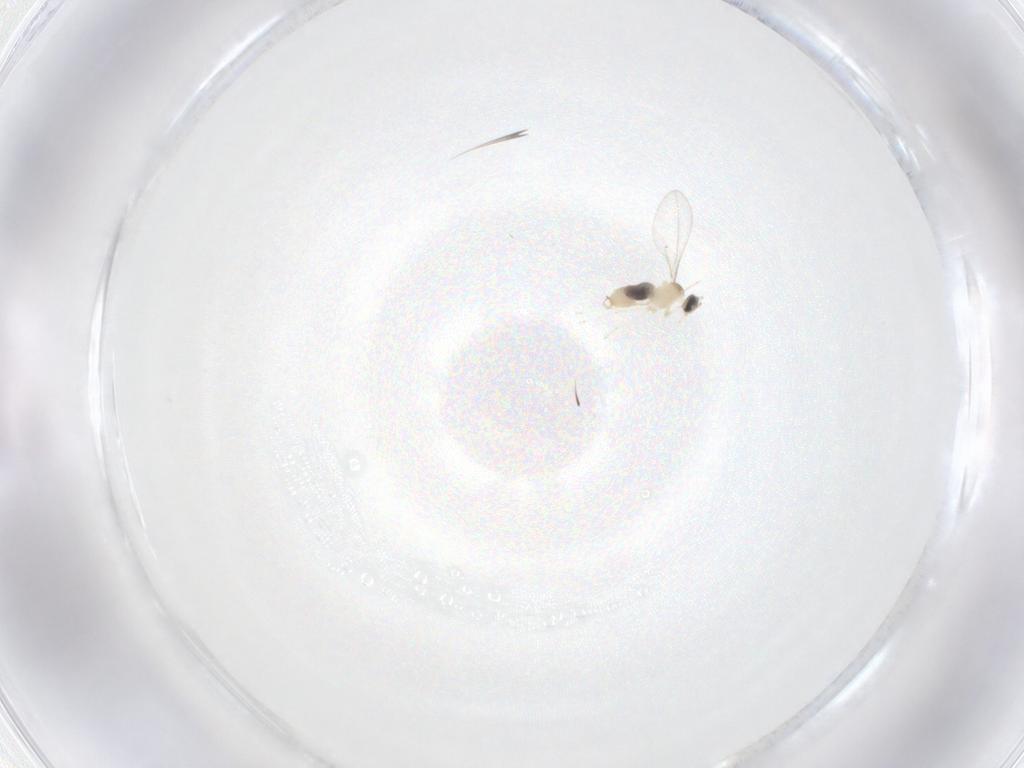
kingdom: Animalia
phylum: Arthropoda
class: Insecta
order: Diptera
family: Cecidomyiidae
